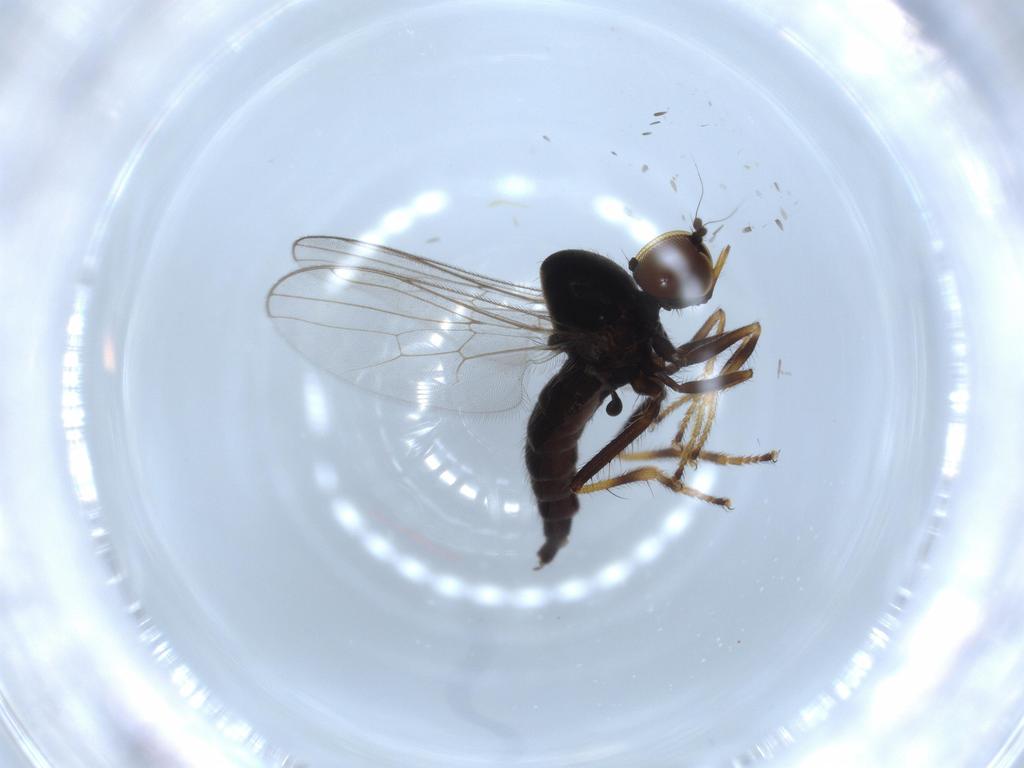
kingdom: Animalia
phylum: Arthropoda
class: Insecta
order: Diptera
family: Hybotidae
